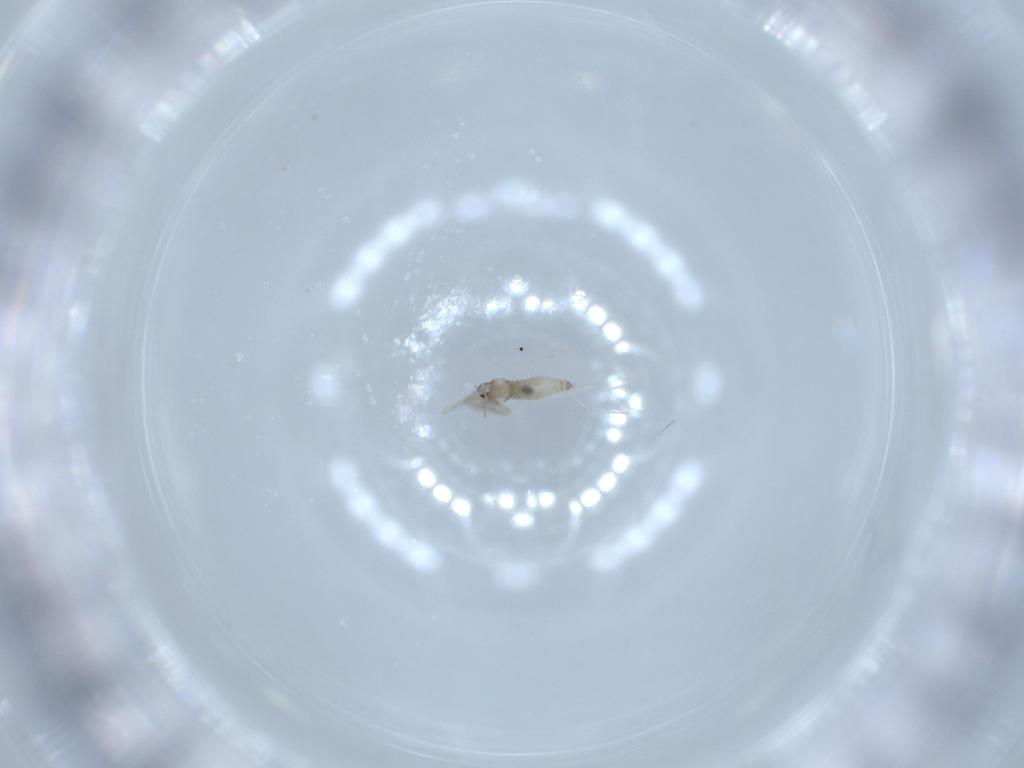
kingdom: Animalia
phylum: Arthropoda
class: Insecta
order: Diptera
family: Cecidomyiidae
